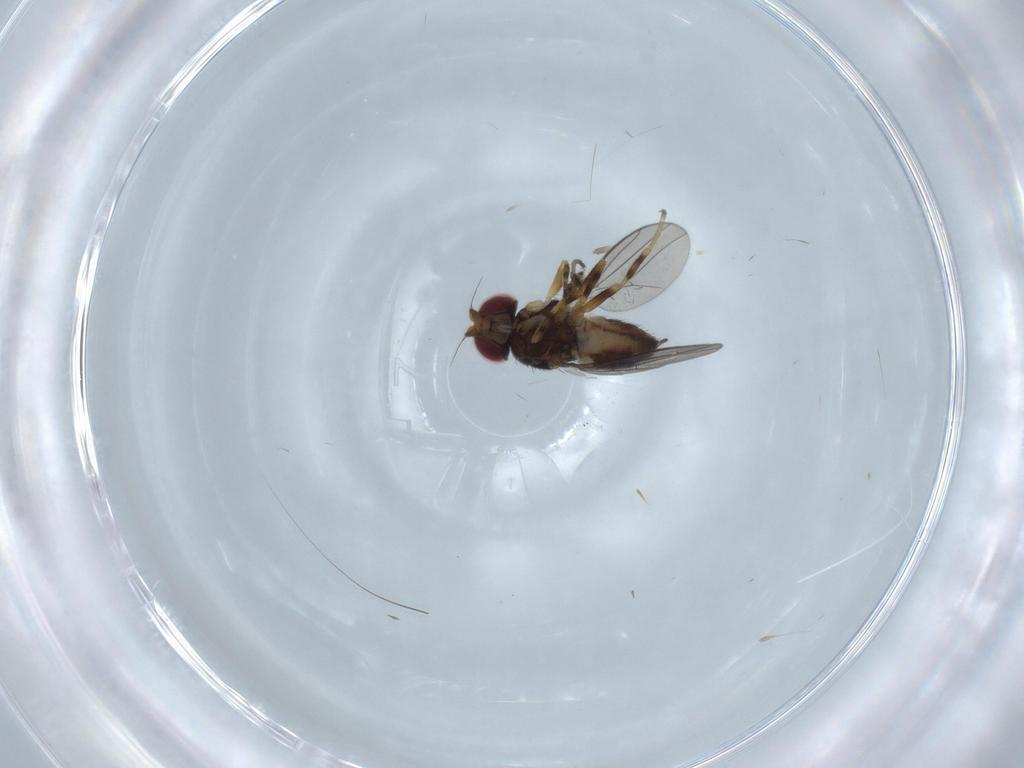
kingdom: Animalia
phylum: Arthropoda
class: Insecta
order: Diptera
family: Chloropidae
